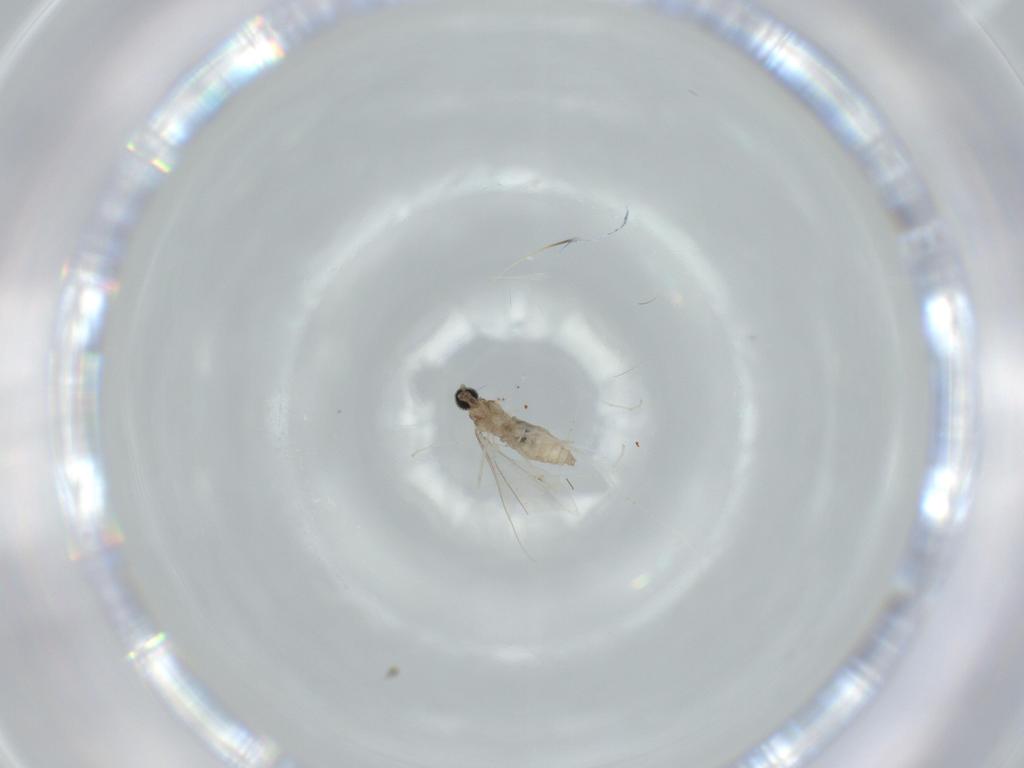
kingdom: Animalia
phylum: Arthropoda
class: Insecta
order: Diptera
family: Cecidomyiidae
